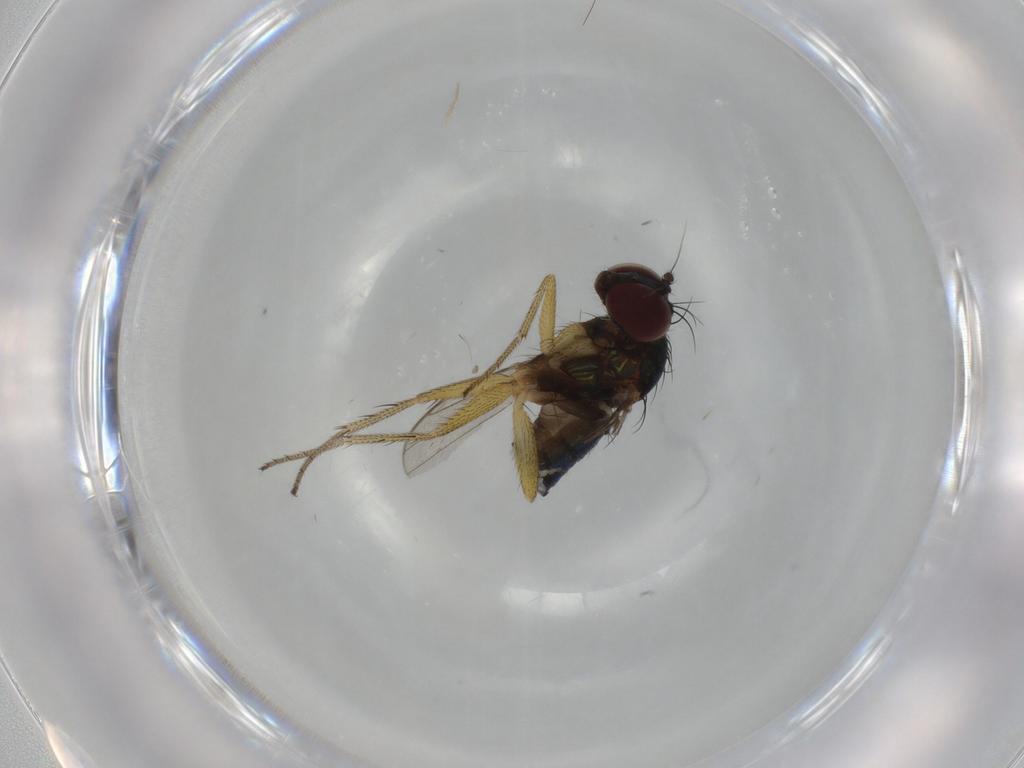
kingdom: Animalia
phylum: Arthropoda
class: Insecta
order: Diptera
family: Dolichopodidae
